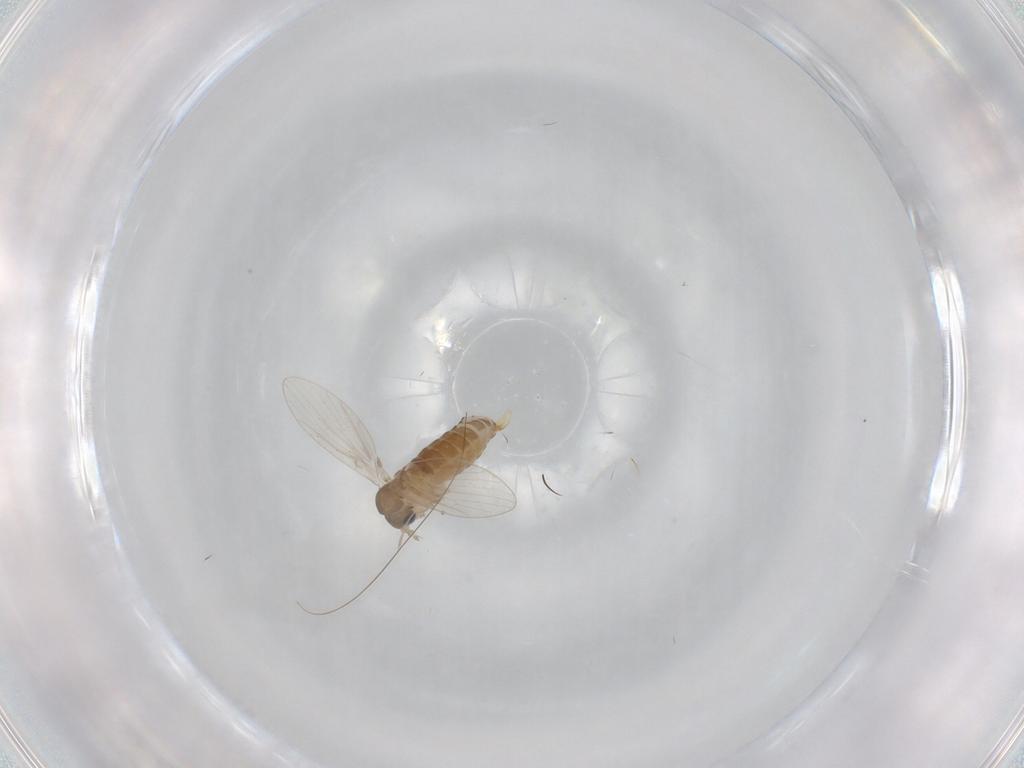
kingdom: Animalia
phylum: Arthropoda
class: Insecta
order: Diptera
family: Psychodidae
